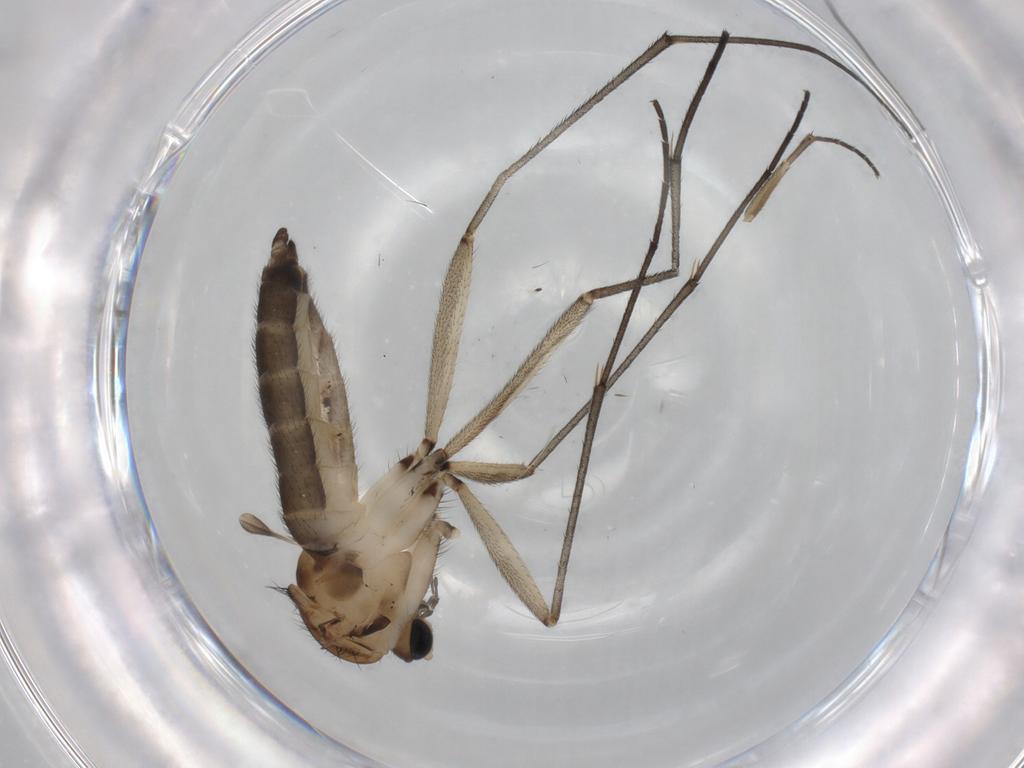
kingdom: Animalia
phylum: Arthropoda
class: Insecta
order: Diptera
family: Sciaridae
